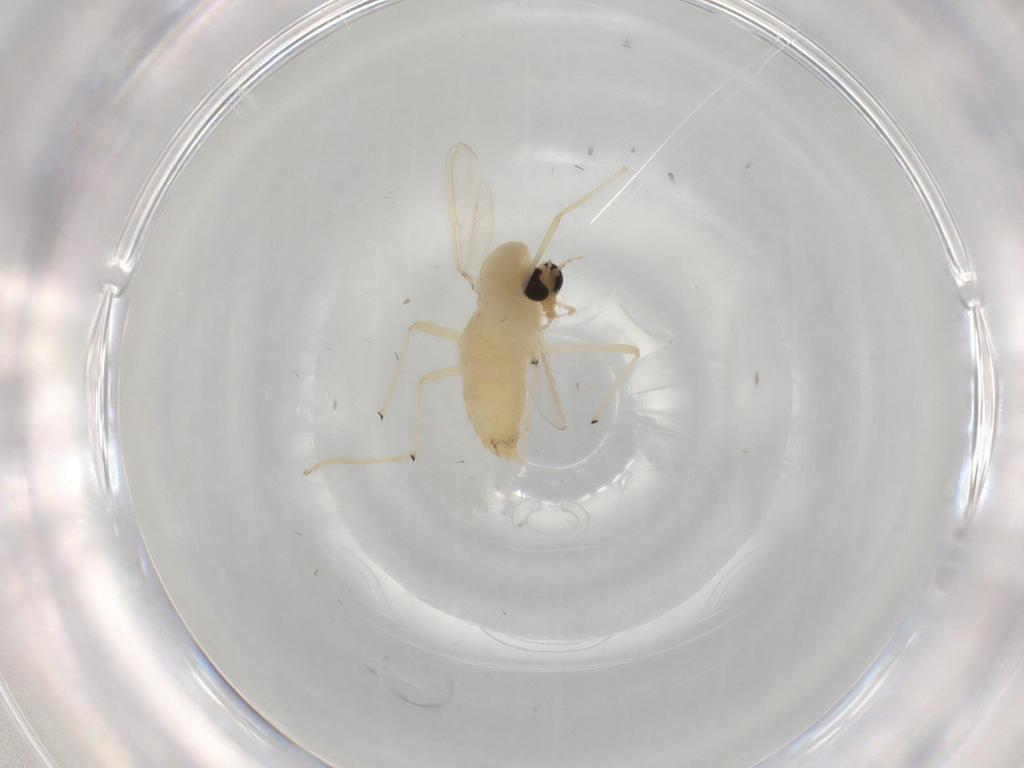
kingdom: Animalia
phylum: Arthropoda
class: Insecta
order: Diptera
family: Chironomidae
